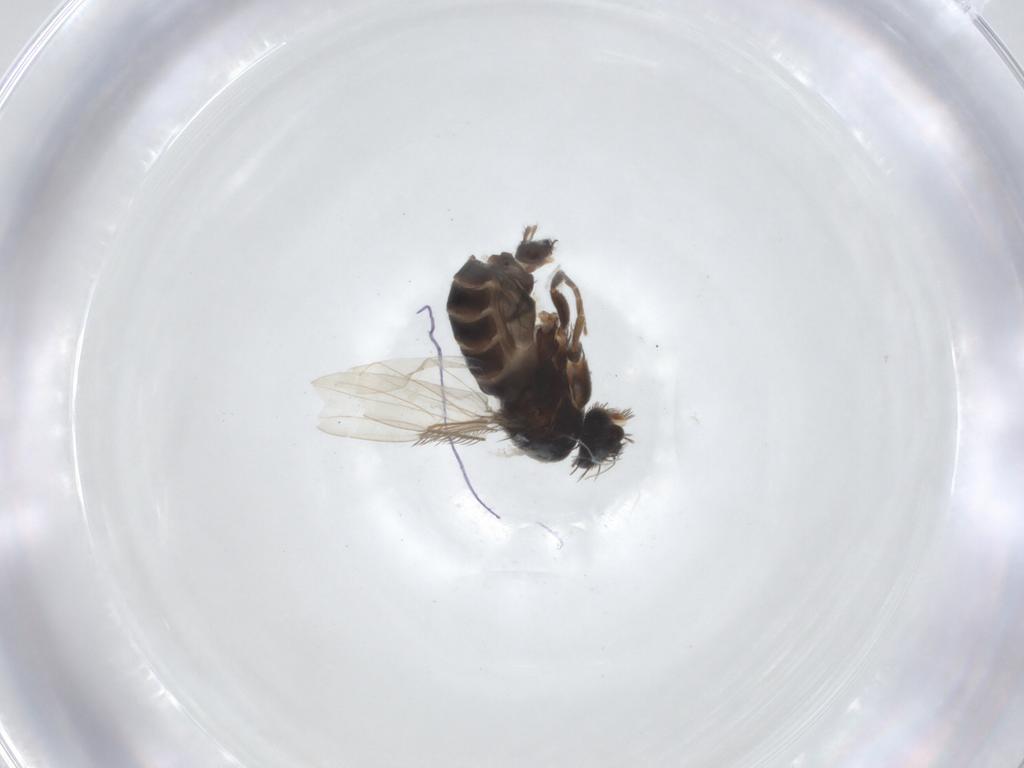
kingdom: Animalia
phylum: Arthropoda
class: Insecta
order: Diptera
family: Phoridae
